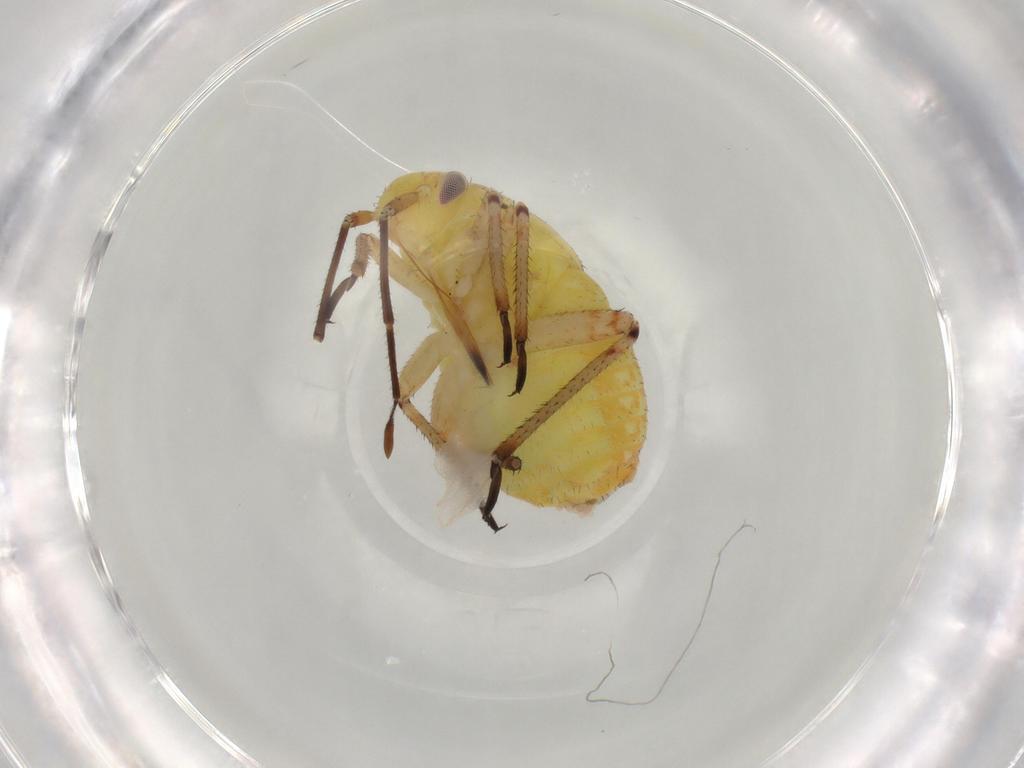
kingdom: Animalia
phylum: Arthropoda
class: Insecta
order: Hemiptera
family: Miridae
